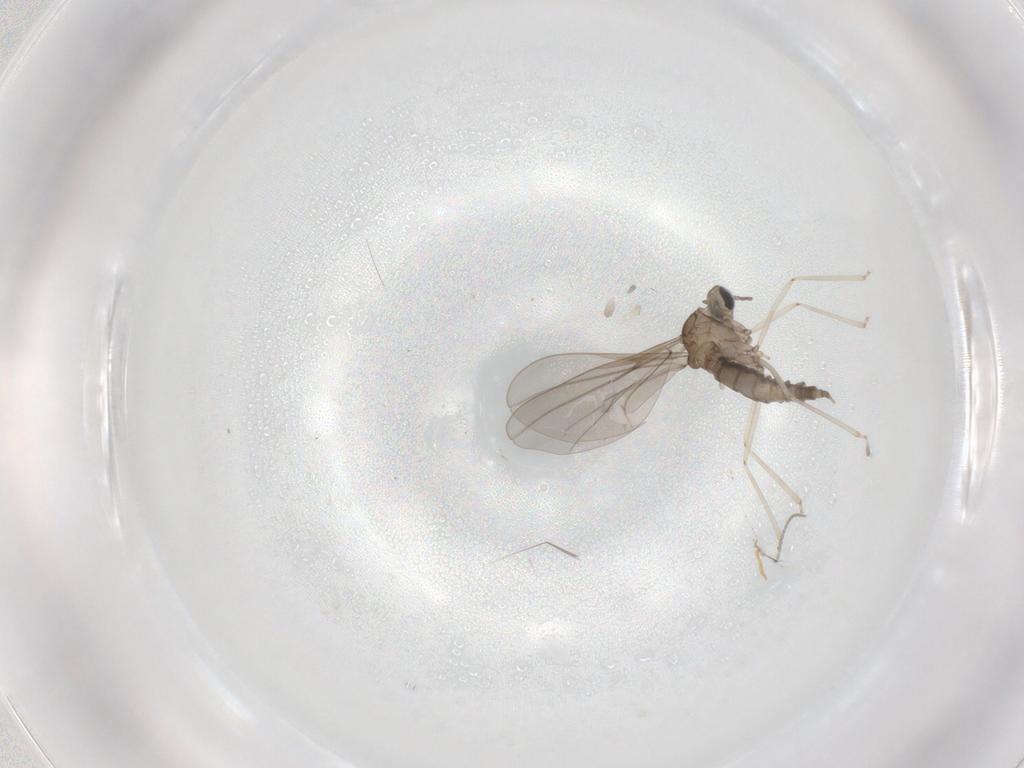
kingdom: Animalia
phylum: Arthropoda
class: Insecta
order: Diptera
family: Cecidomyiidae
